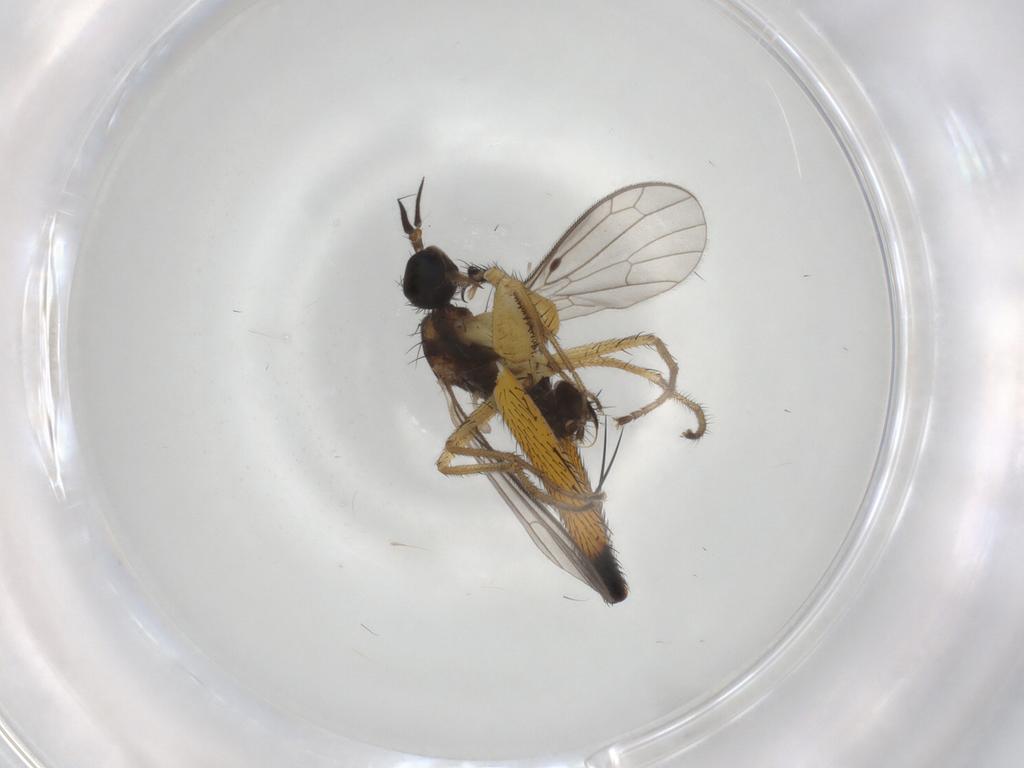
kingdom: Animalia
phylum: Arthropoda
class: Insecta
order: Diptera
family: Muscidae
